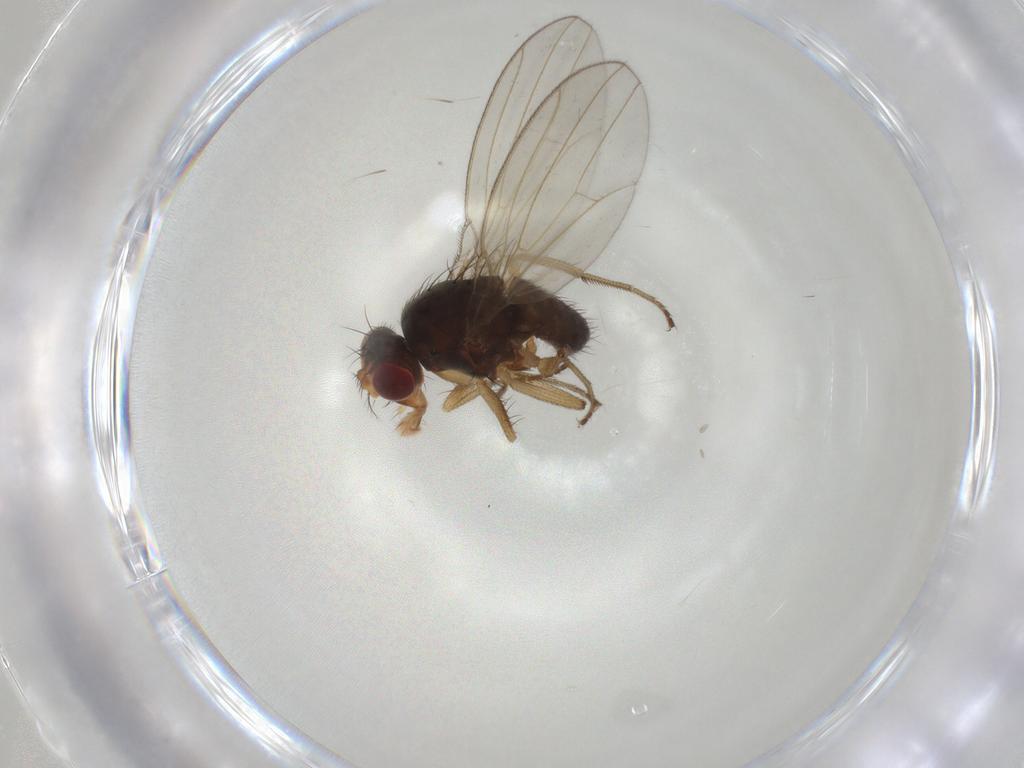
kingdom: Animalia
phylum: Arthropoda
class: Insecta
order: Diptera
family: Drosophilidae
